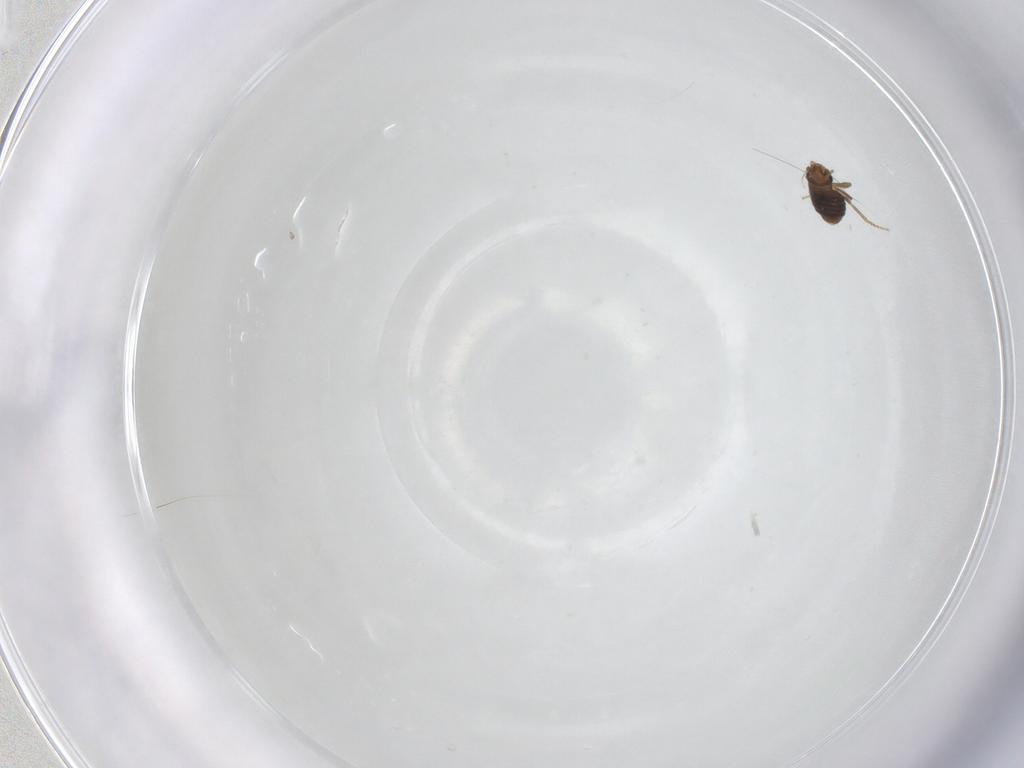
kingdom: Animalia
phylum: Arthropoda
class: Insecta
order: Diptera
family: Phoridae
